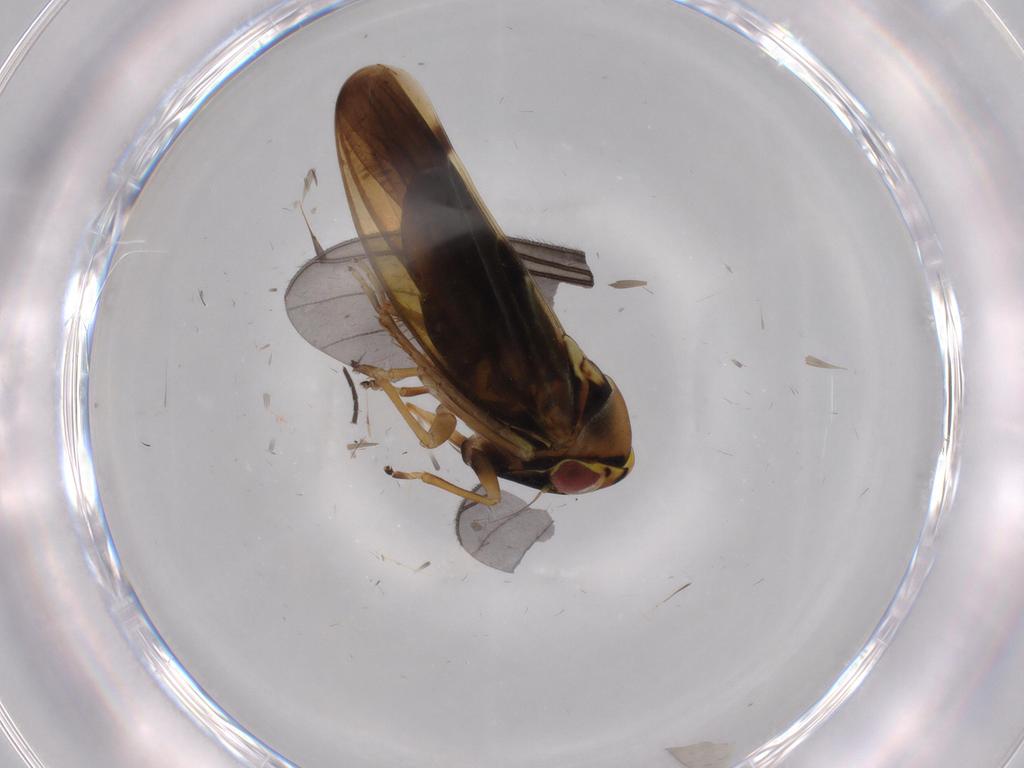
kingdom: Animalia
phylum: Arthropoda
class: Insecta
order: Hemiptera
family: Cicadellidae
